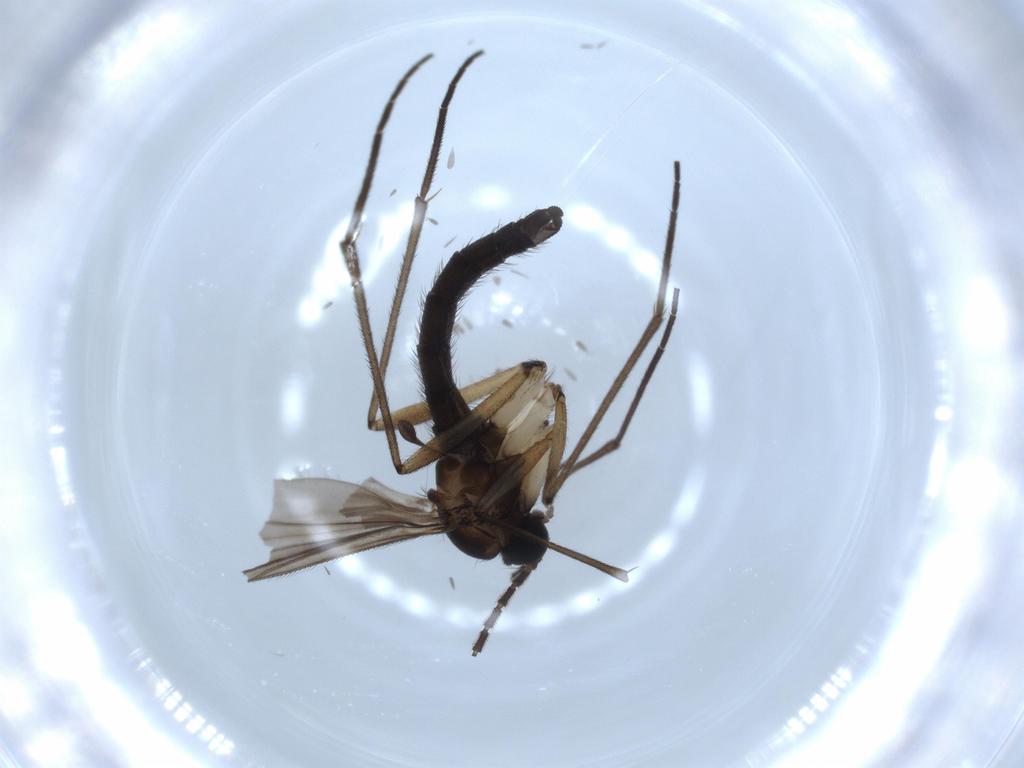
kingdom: Animalia
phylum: Arthropoda
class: Insecta
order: Diptera
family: Sciaridae
